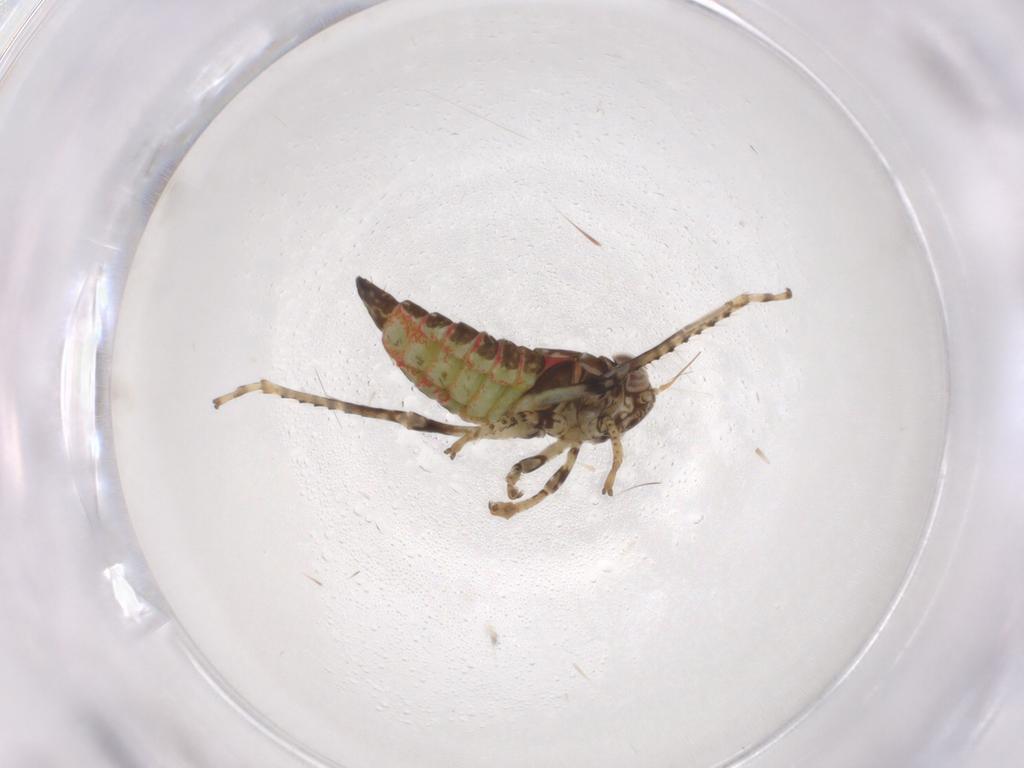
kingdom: Animalia
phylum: Arthropoda
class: Insecta
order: Hemiptera
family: Cicadellidae
